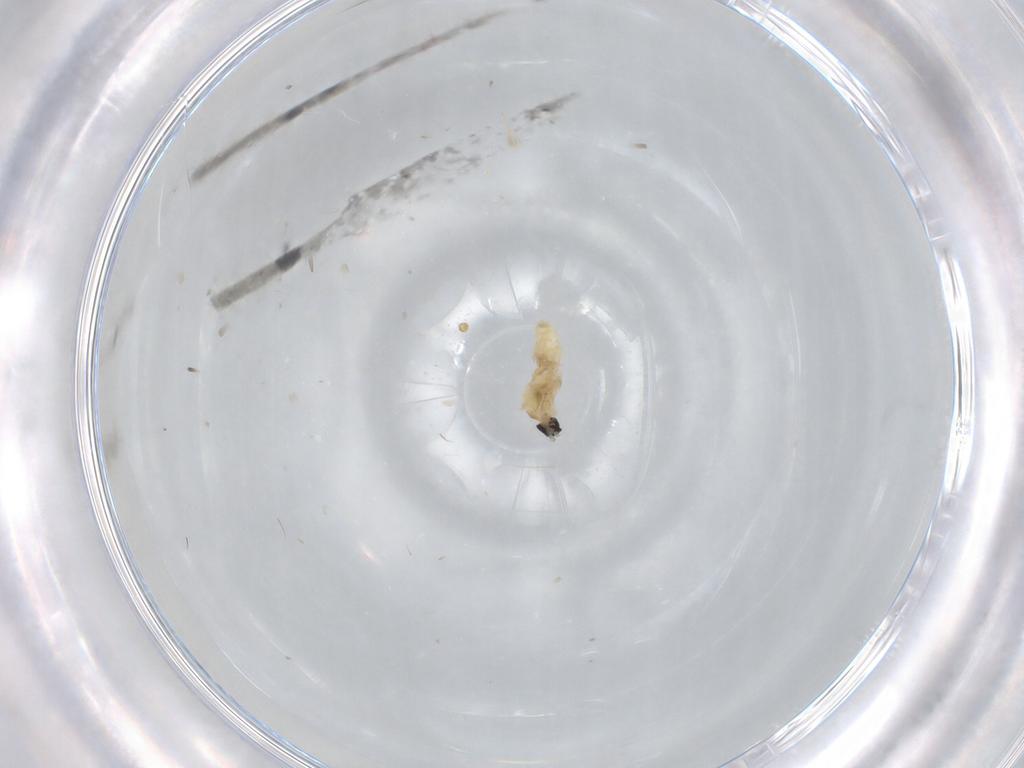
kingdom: Animalia
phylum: Arthropoda
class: Insecta
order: Diptera
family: Cecidomyiidae
